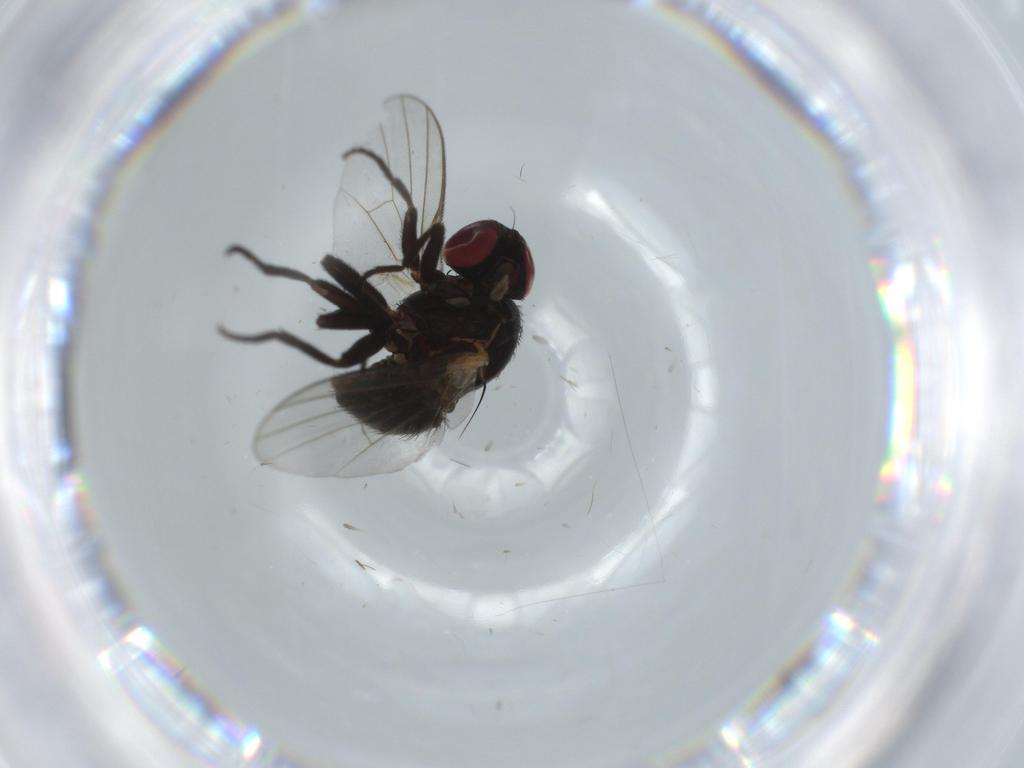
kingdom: Animalia
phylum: Arthropoda
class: Insecta
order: Diptera
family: Agromyzidae
